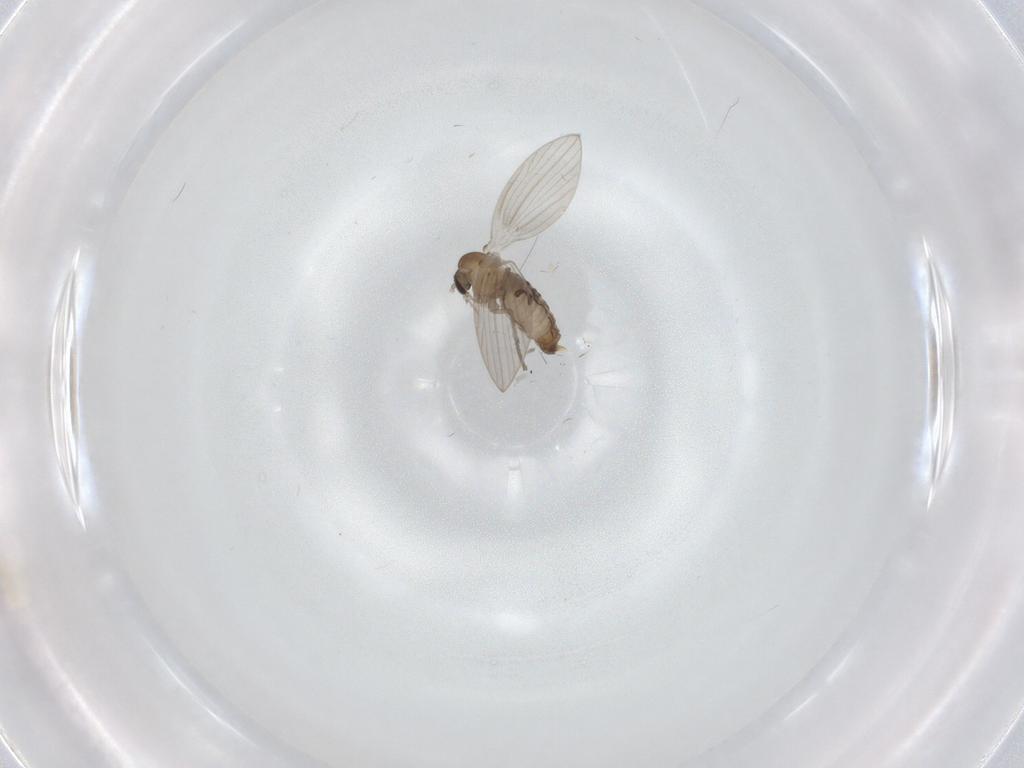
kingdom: Animalia
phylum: Arthropoda
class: Insecta
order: Diptera
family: Psychodidae
